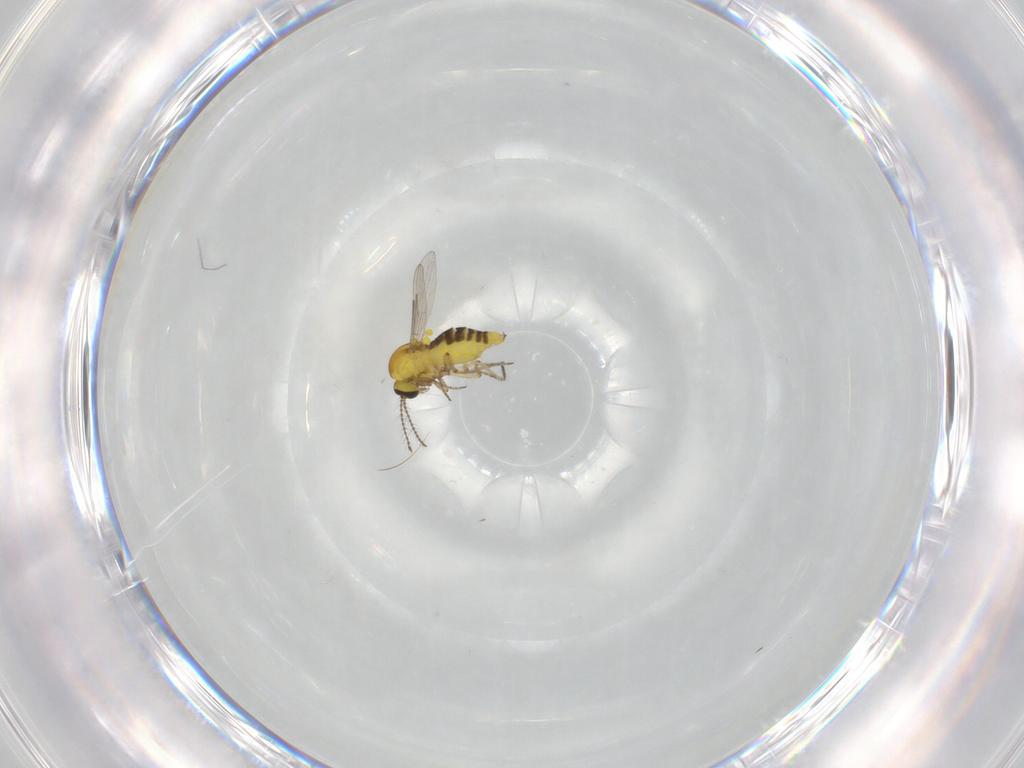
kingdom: Animalia
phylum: Arthropoda
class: Insecta
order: Diptera
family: Ceratopogonidae
